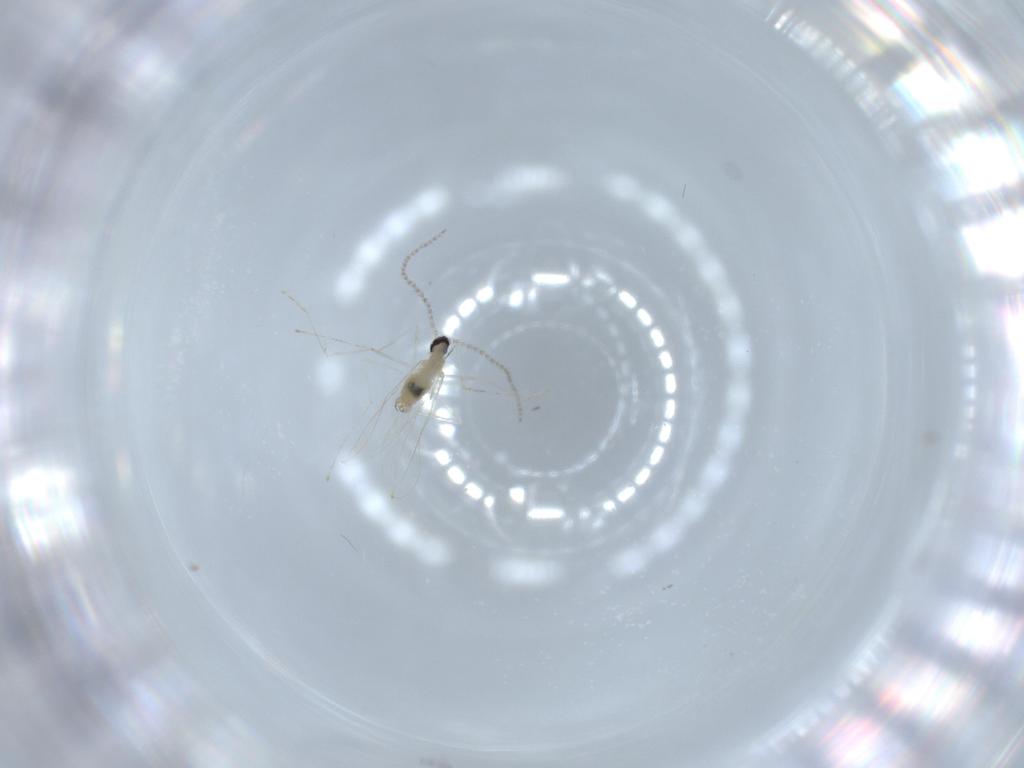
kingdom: Animalia
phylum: Arthropoda
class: Insecta
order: Diptera
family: Cecidomyiidae
